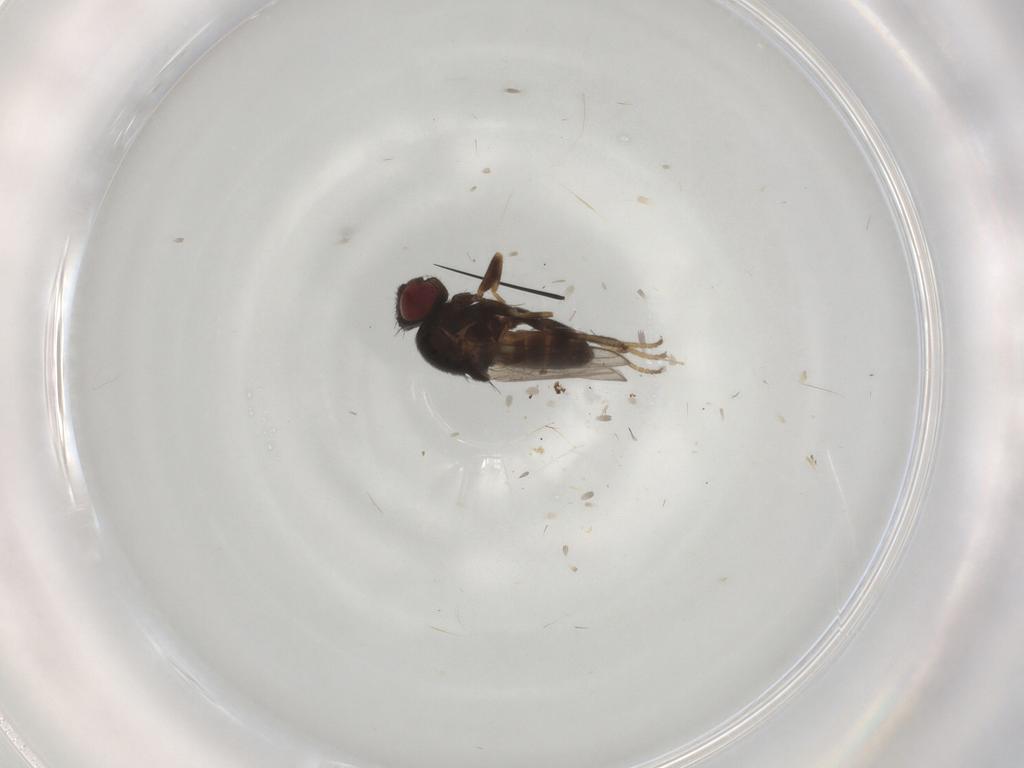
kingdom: Animalia
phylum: Arthropoda
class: Insecta
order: Diptera
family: Chloropidae
